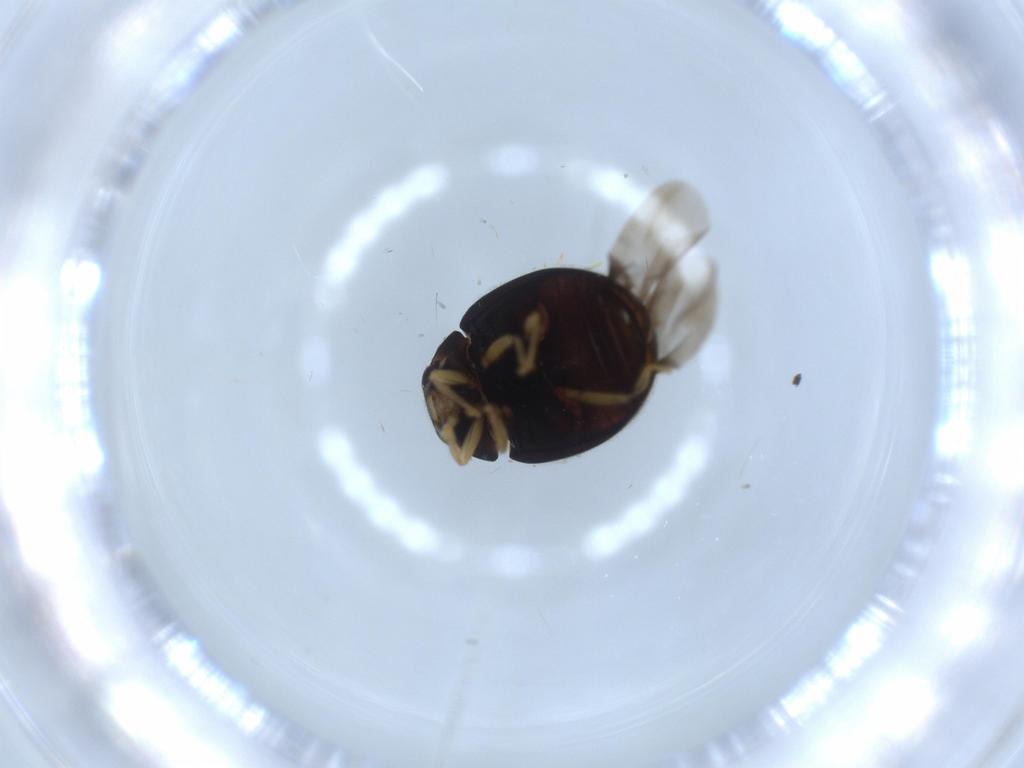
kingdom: Animalia
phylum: Arthropoda
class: Insecta
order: Coleoptera
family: Coccinellidae
